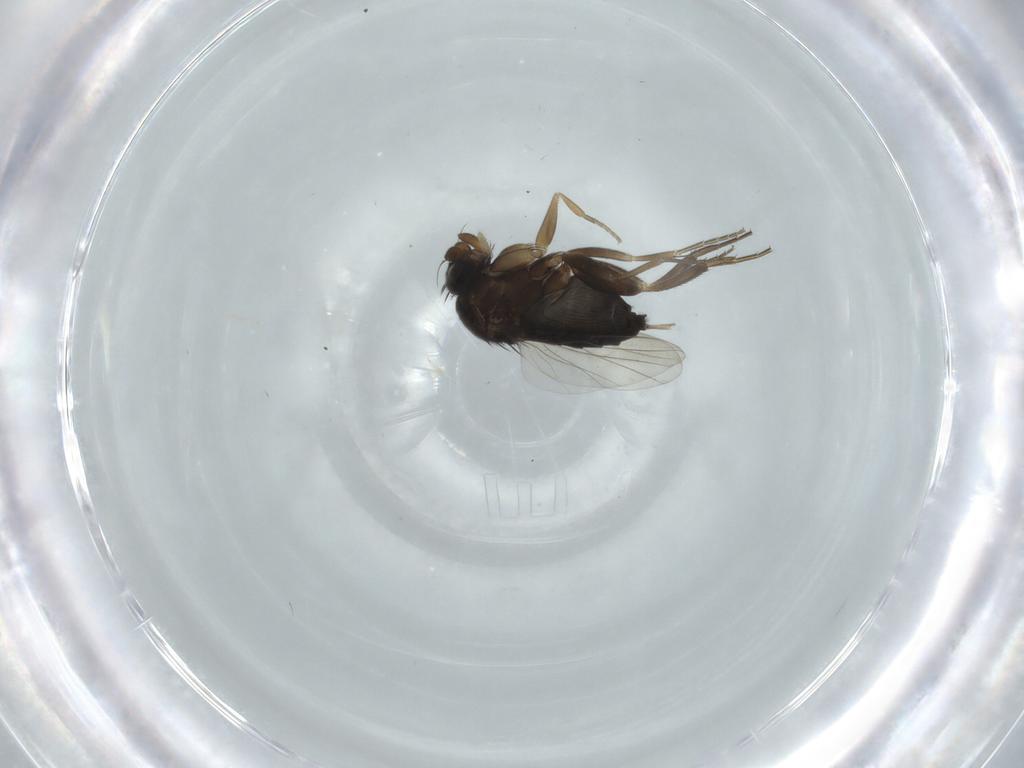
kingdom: Animalia
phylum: Arthropoda
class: Insecta
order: Diptera
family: Phoridae
